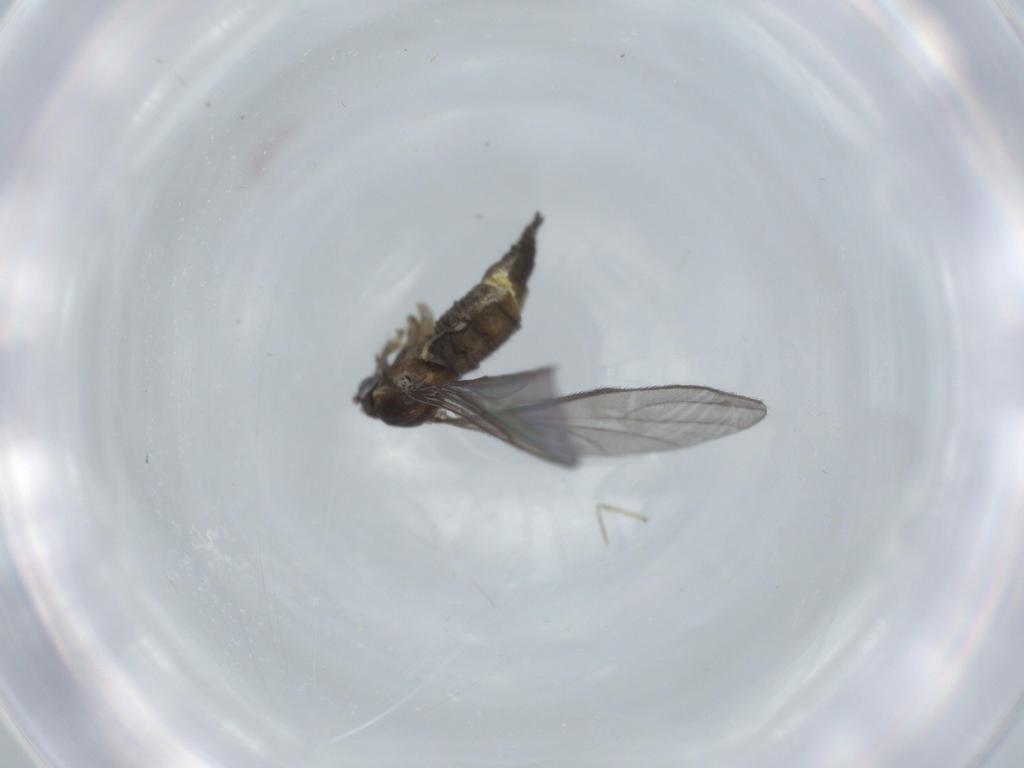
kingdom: Animalia
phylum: Arthropoda
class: Insecta
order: Diptera
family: Sciaridae
